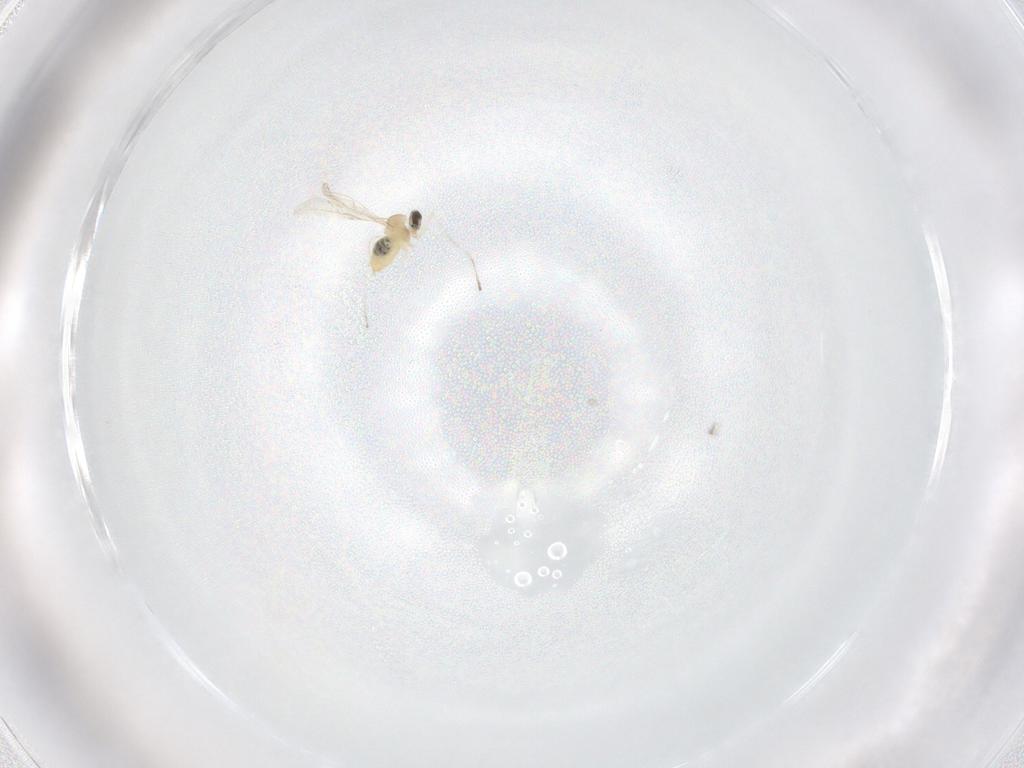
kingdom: Animalia
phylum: Arthropoda
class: Insecta
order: Diptera
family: Cecidomyiidae
